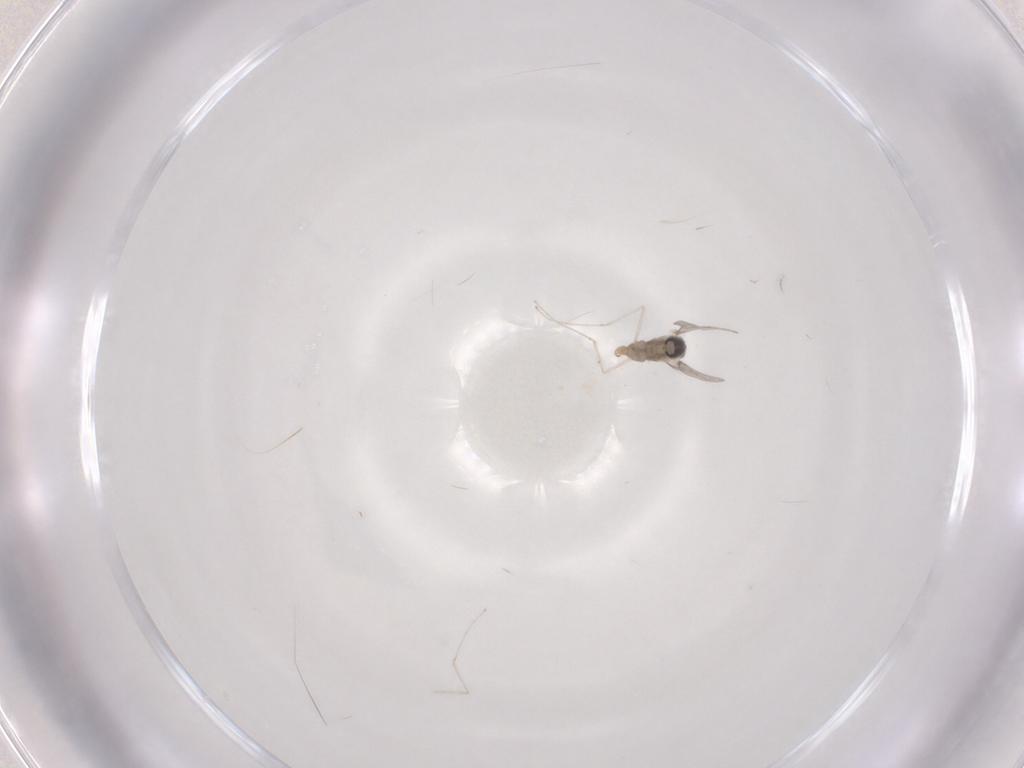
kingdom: Animalia
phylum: Arthropoda
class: Insecta
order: Diptera
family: Cecidomyiidae
